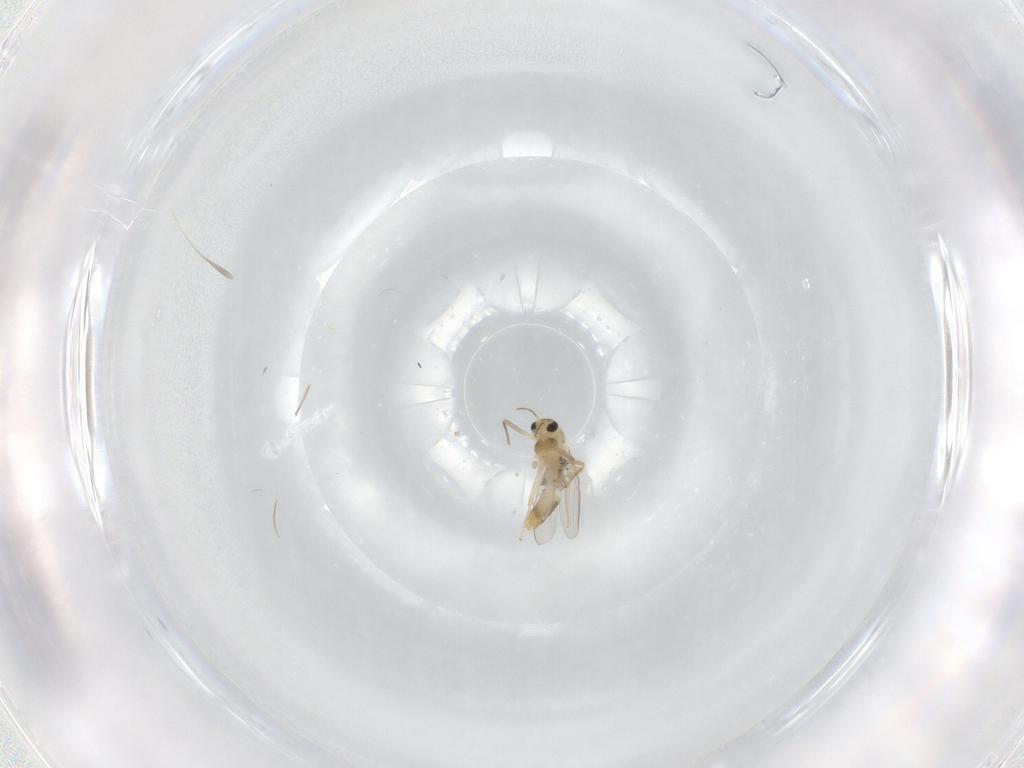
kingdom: Animalia
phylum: Arthropoda
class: Insecta
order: Diptera
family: Chironomidae
